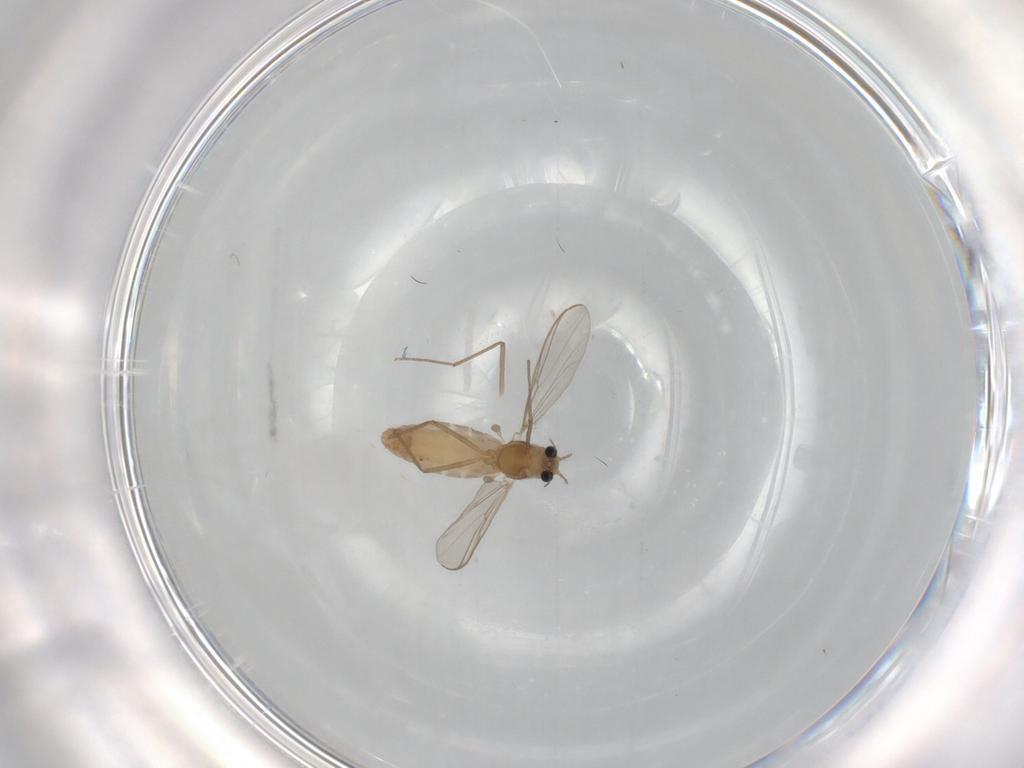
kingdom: Animalia
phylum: Arthropoda
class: Insecta
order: Diptera
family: Chironomidae
